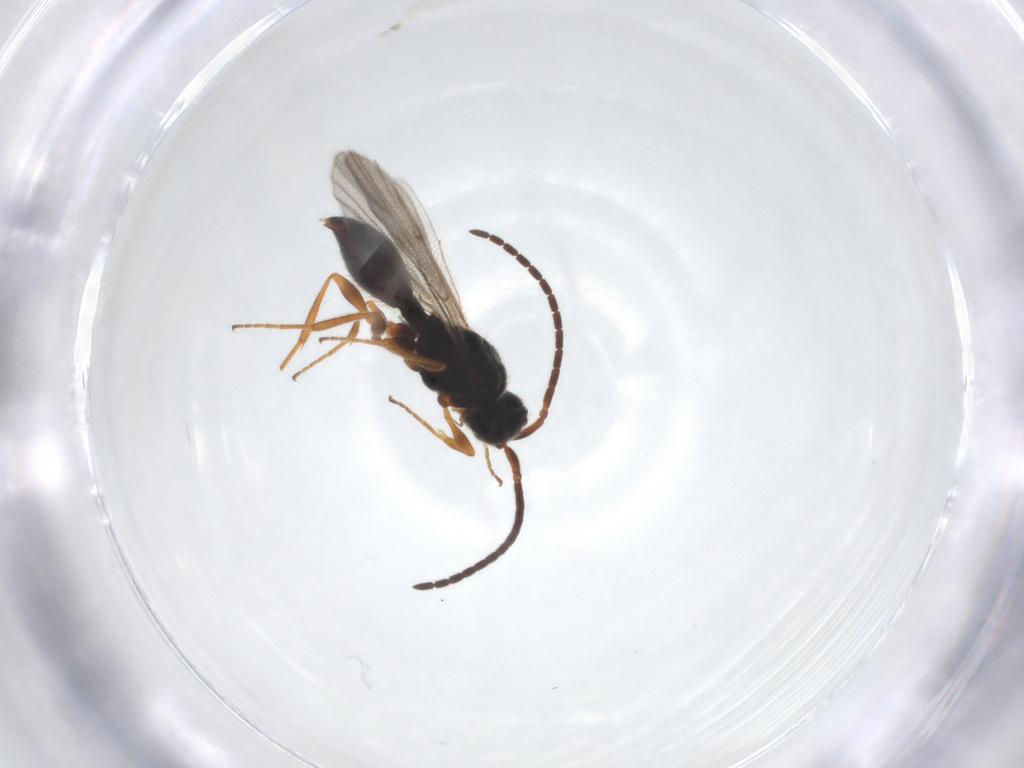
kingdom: Animalia
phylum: Arthropoda
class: Insecta
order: Hymenoptera
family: Diapriidae
